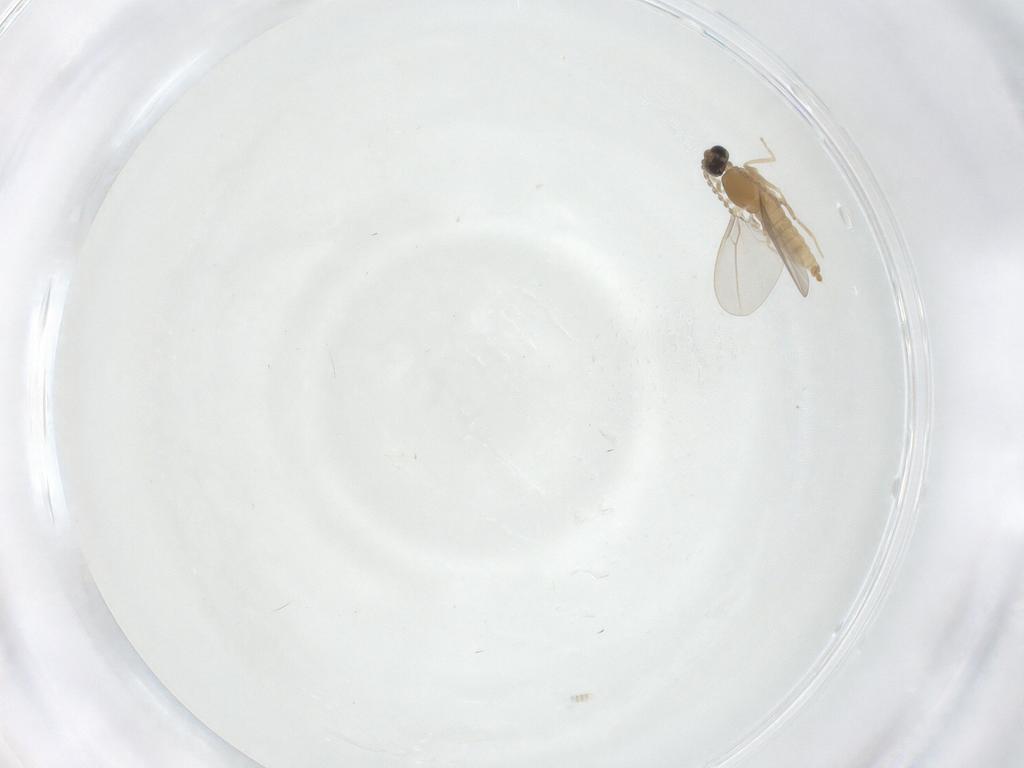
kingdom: Animalia
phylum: Arthropoda
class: Insecta
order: Diptera
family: Cecidomyiidae
